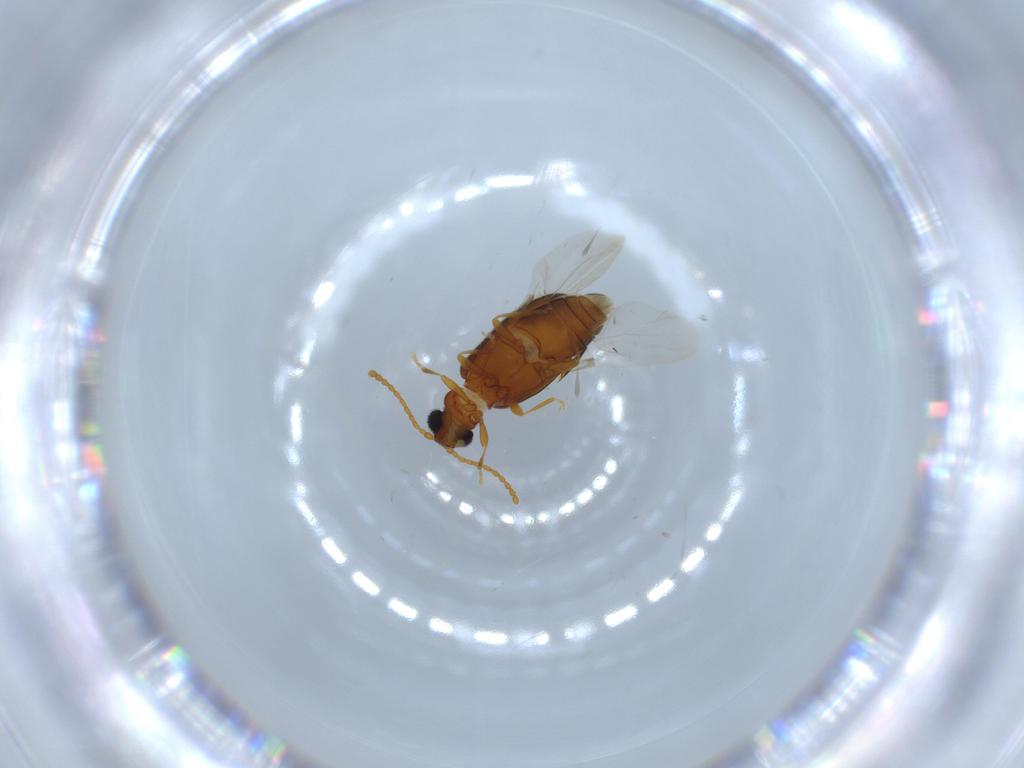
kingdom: Animalia
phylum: Arthropoda
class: Insecta
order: Coleoptera
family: Aderidae
